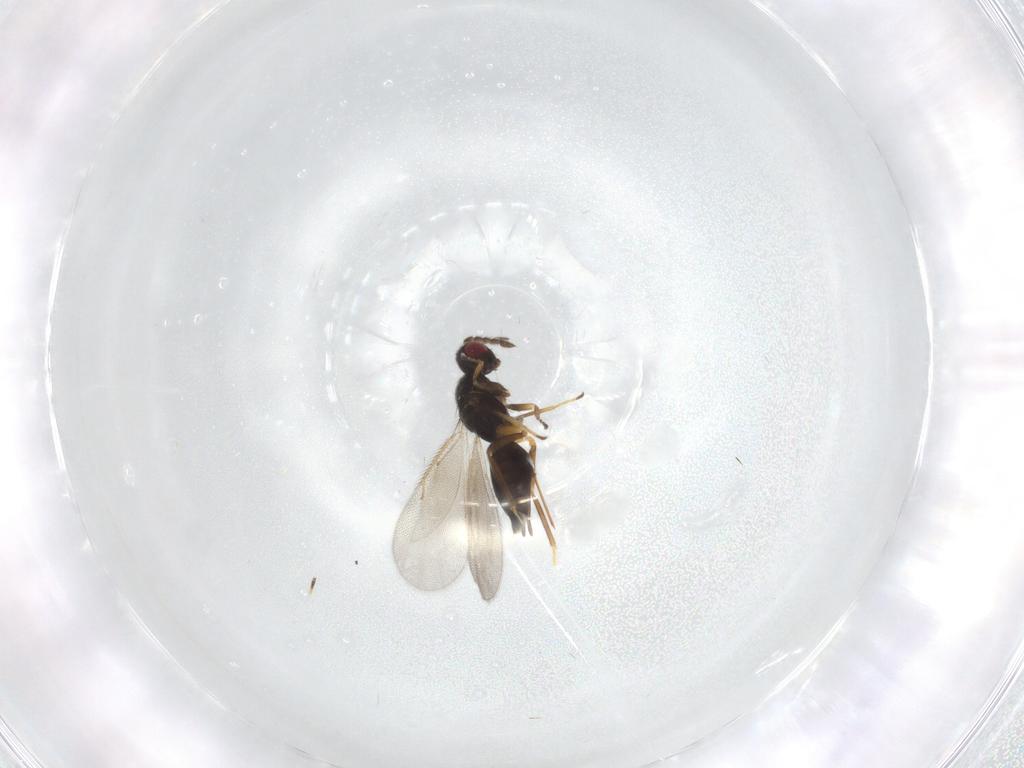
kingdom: Animalia
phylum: Arthropoda
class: Insecta
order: Hymenoptera
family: Eulophidae
